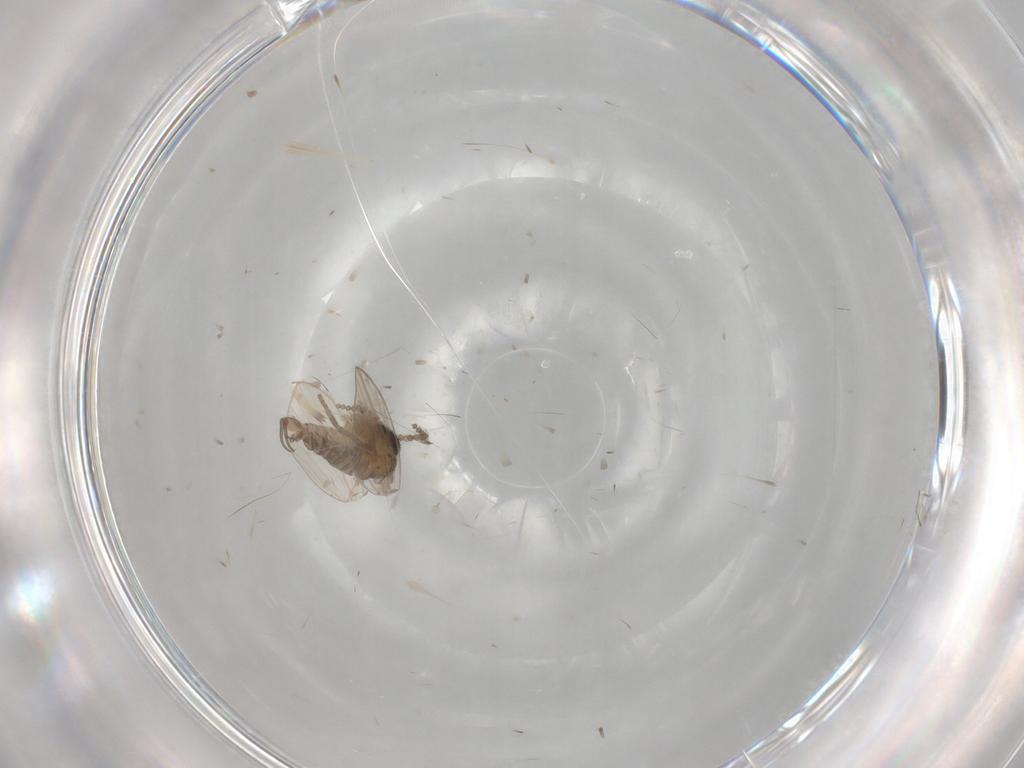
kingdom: Animalia
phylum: Arthropoda
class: Insecta
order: Diptera
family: Psychodidae
